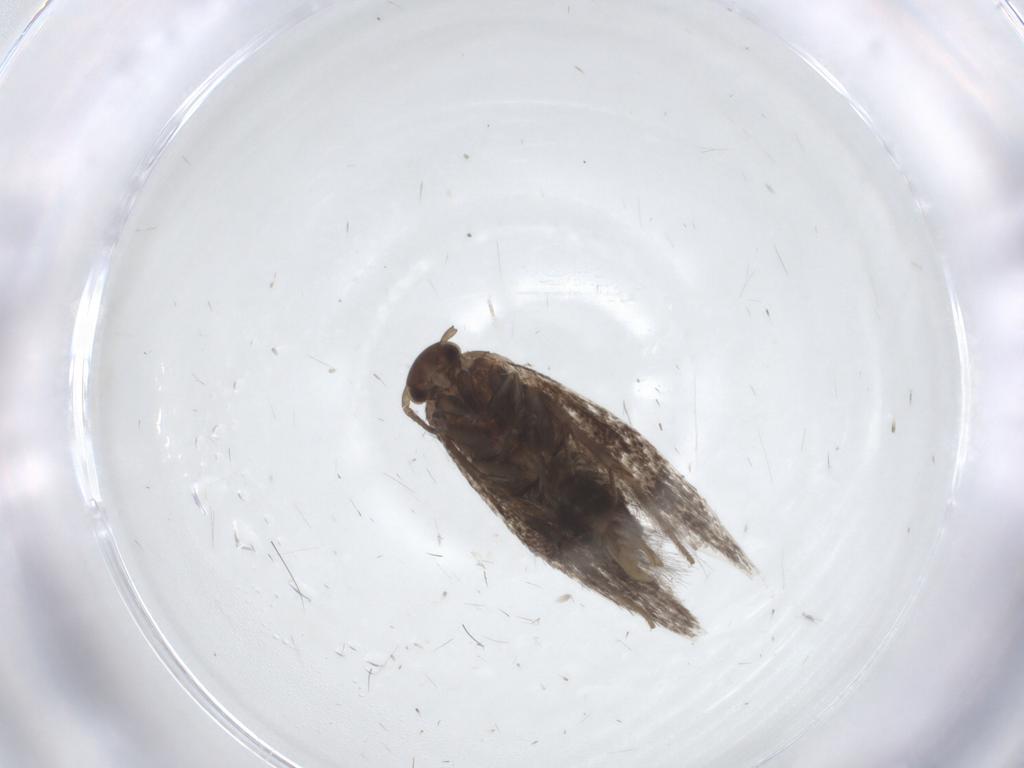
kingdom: Animalia
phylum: Arthropoda
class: Insecta
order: Lepidoptera
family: Elachistidae
